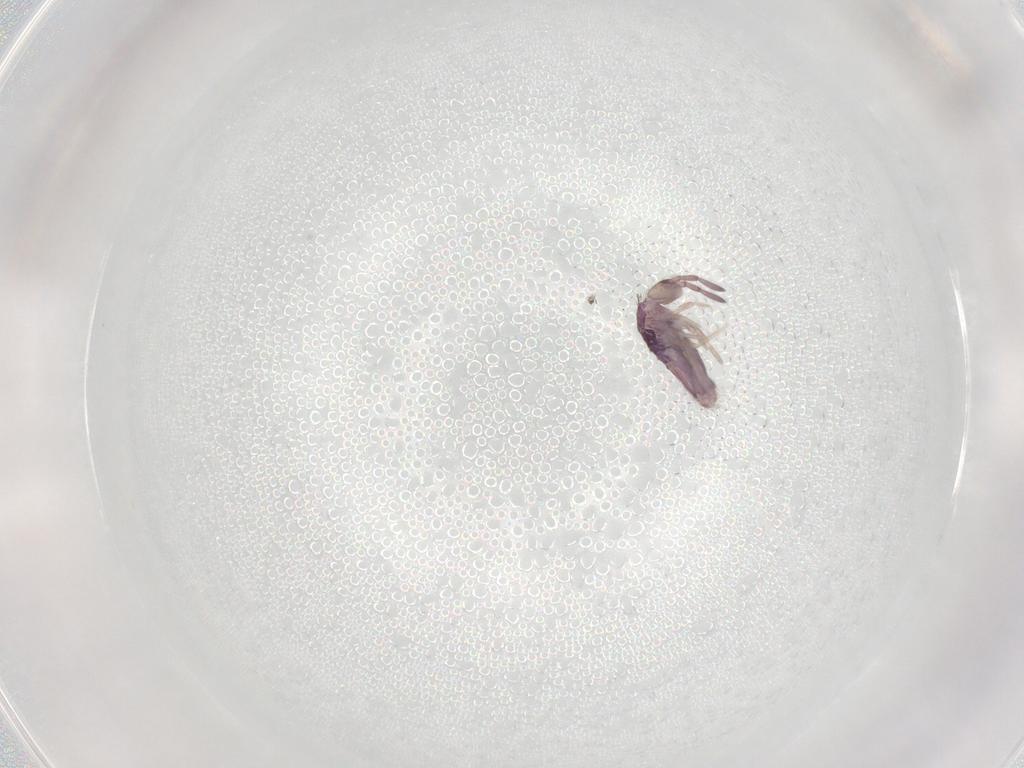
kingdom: Animalia
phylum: Arthropoda
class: Collembola
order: Entomobryomorpha
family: Entomobryidae
